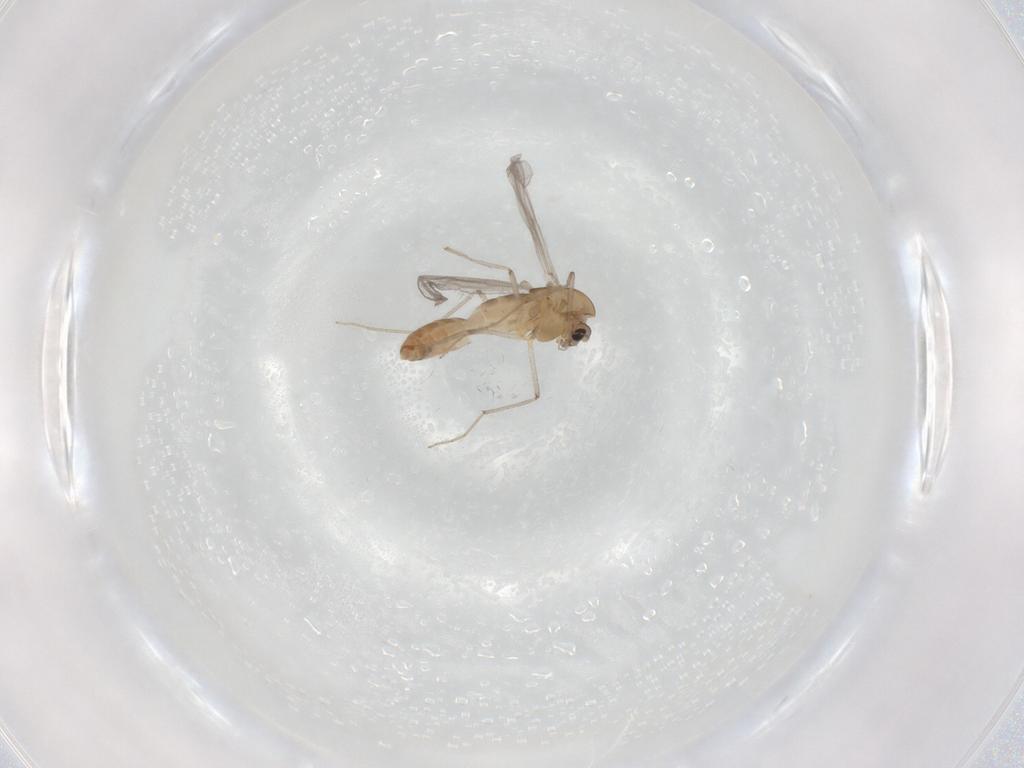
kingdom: Animalia
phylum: Arthropoda
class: Insecta
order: Diptera
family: Chironomidae
